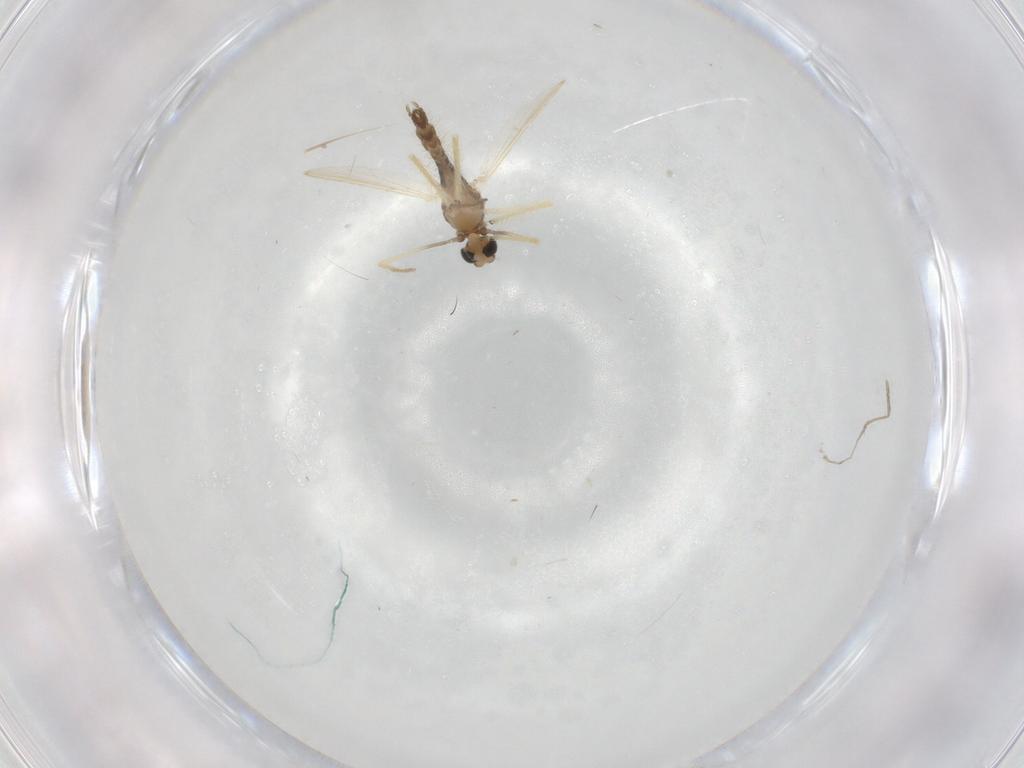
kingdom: Animalia
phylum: Arthropoda
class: Insecta
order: Diptera
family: Chironomidae
